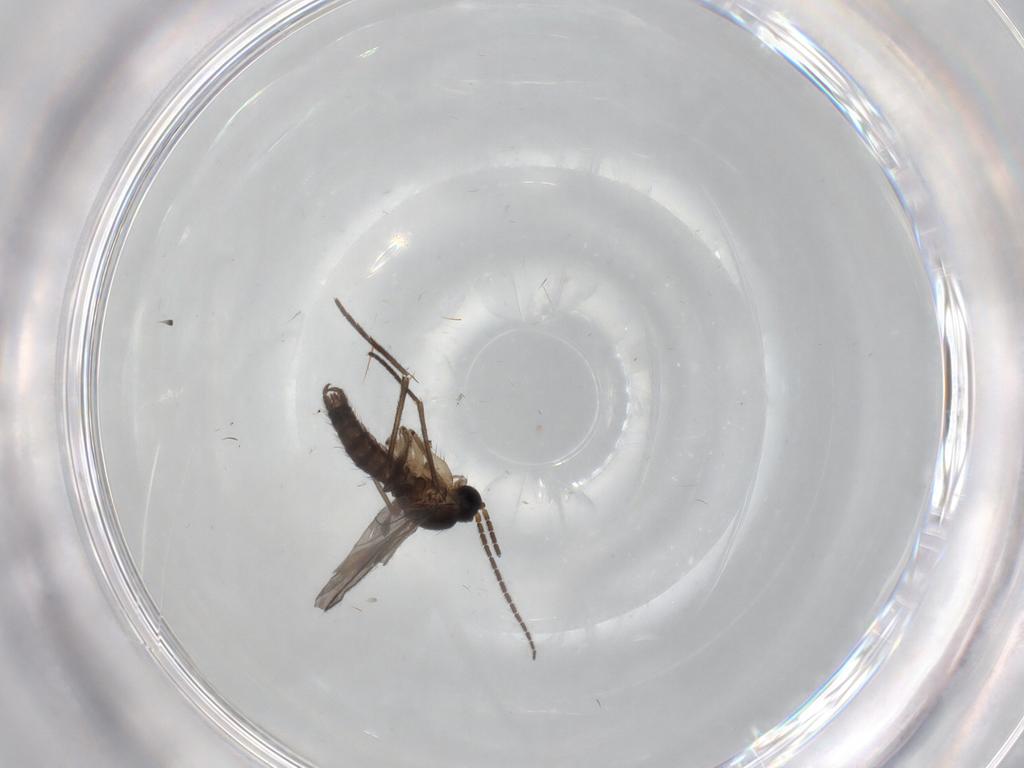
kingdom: Animalia
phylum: Arthropoda
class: Insecta
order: Diptera
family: Sciaridae
